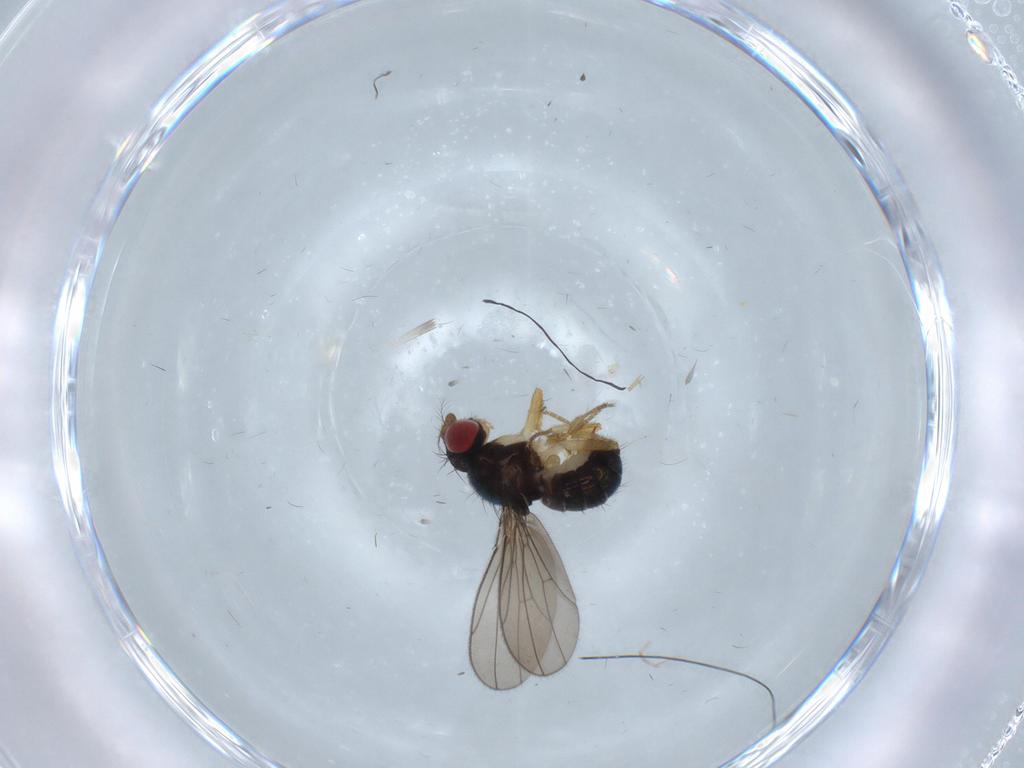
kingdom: Animalia
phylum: Arthropoda
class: Insecta
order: Diptera
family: Drosophilidae
